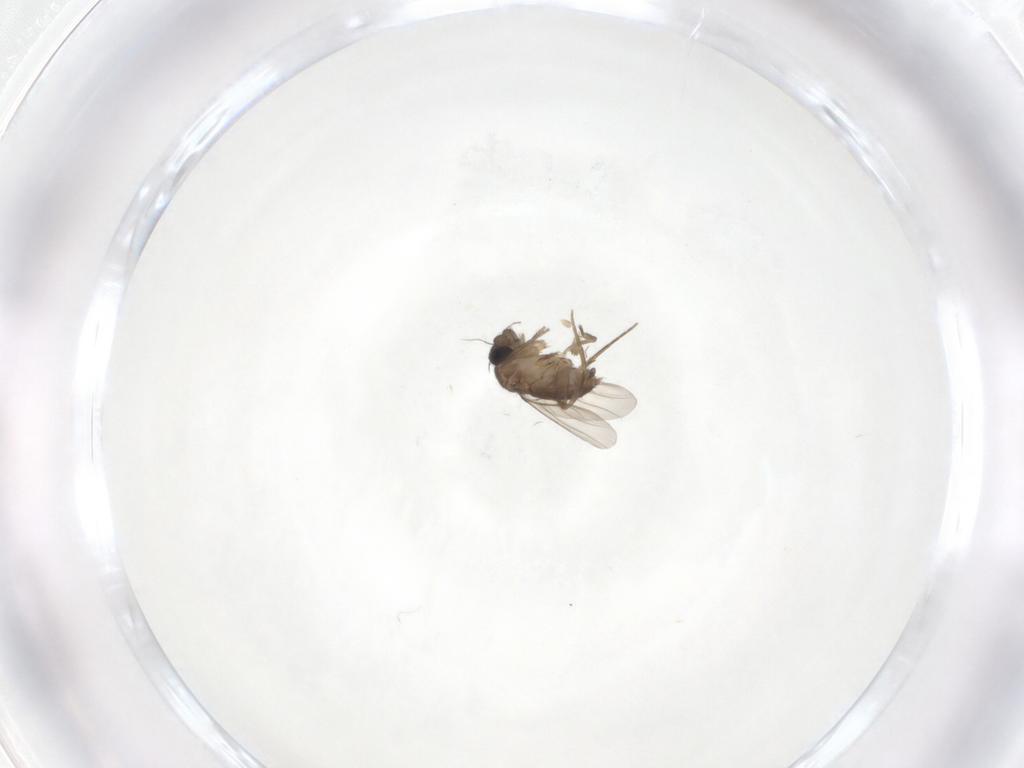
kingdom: Animalia
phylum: Arthropoda
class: Insecta
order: Diptera
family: Phoridae
